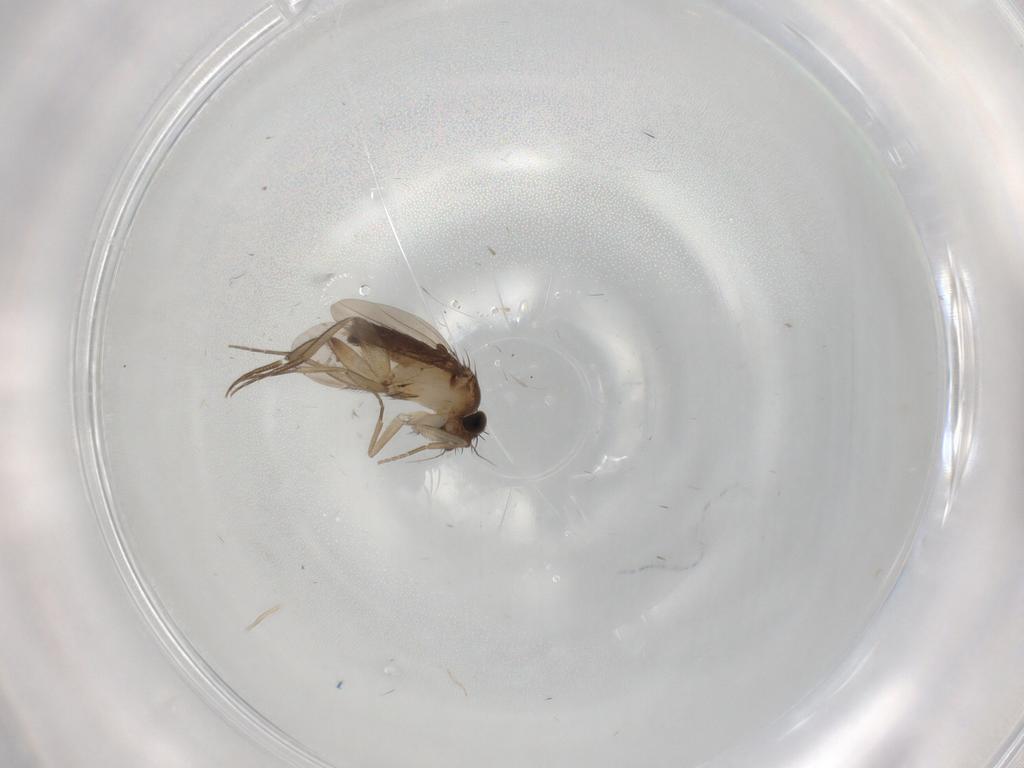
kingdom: Animalia
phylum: Arthropoda
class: Insecta
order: Diptera
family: Phoridae
